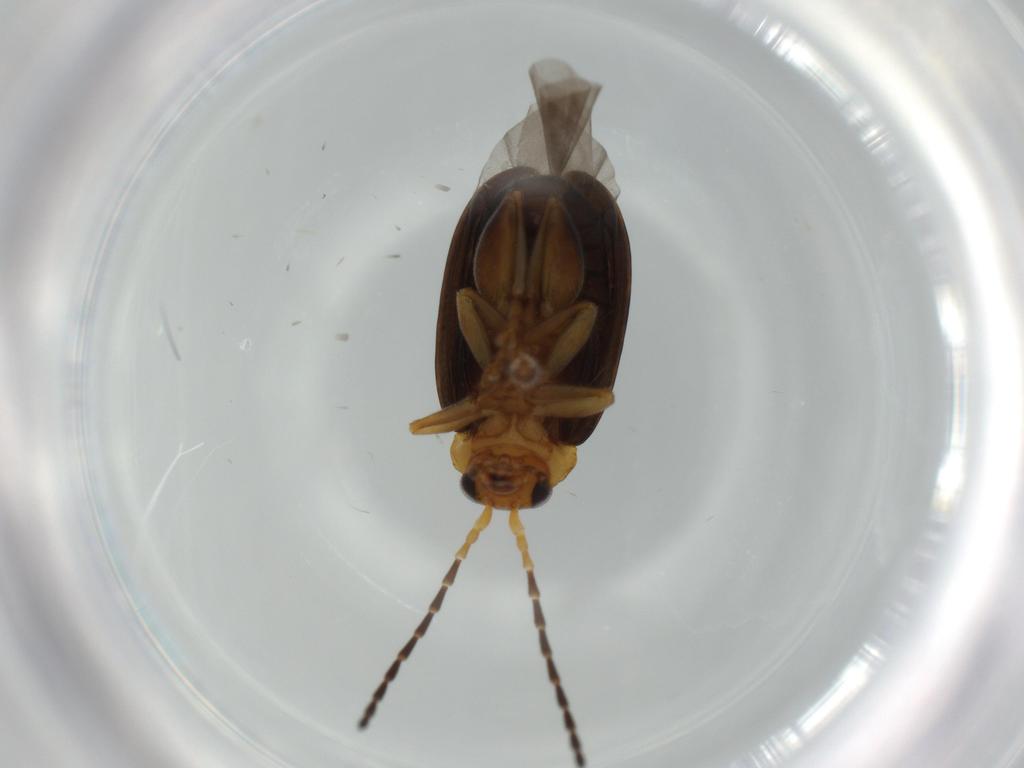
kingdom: Animalia
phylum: Arthropoda
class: Insecta
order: Coleoptera
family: Chrysomelidae
